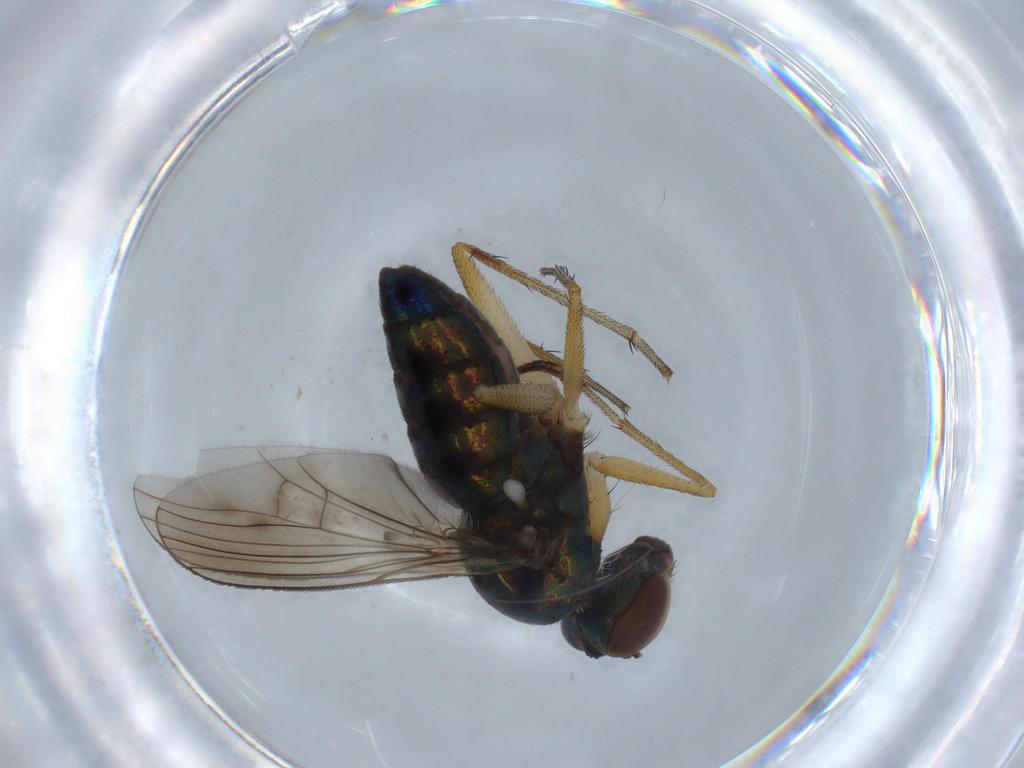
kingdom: Animalia
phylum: Arthropoda
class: Insecta
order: Diptera
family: Dolichopodidae
